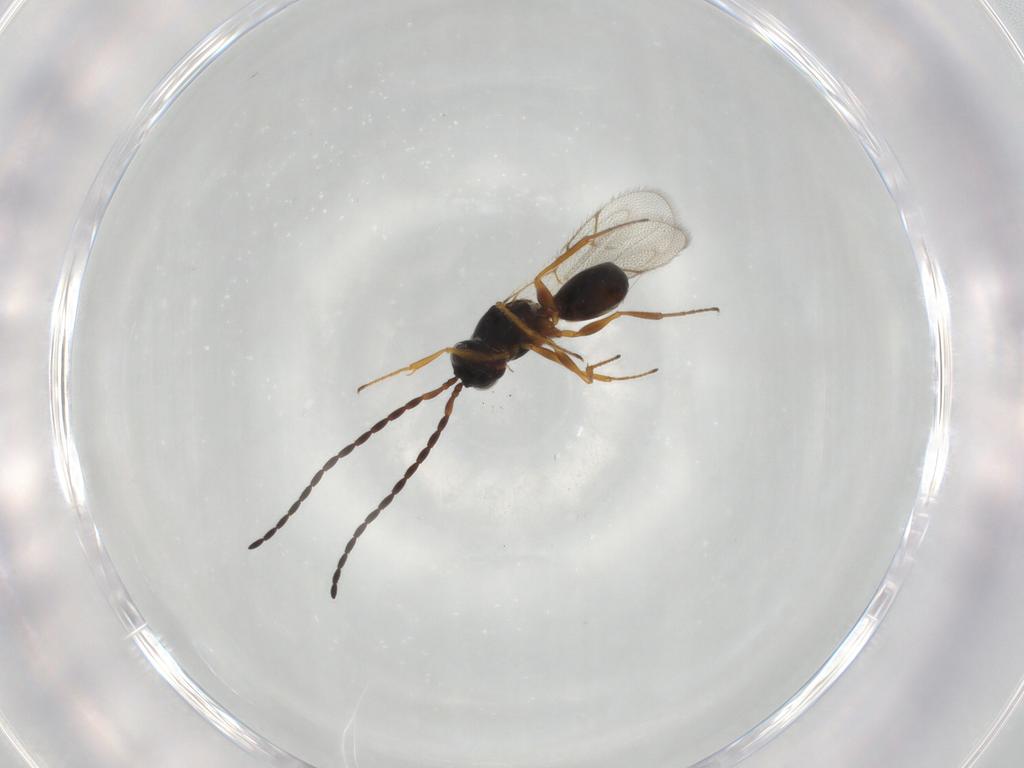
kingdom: Animalia
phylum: Arthropoda
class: Insecta
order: Hymenoptera
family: Figitidae
